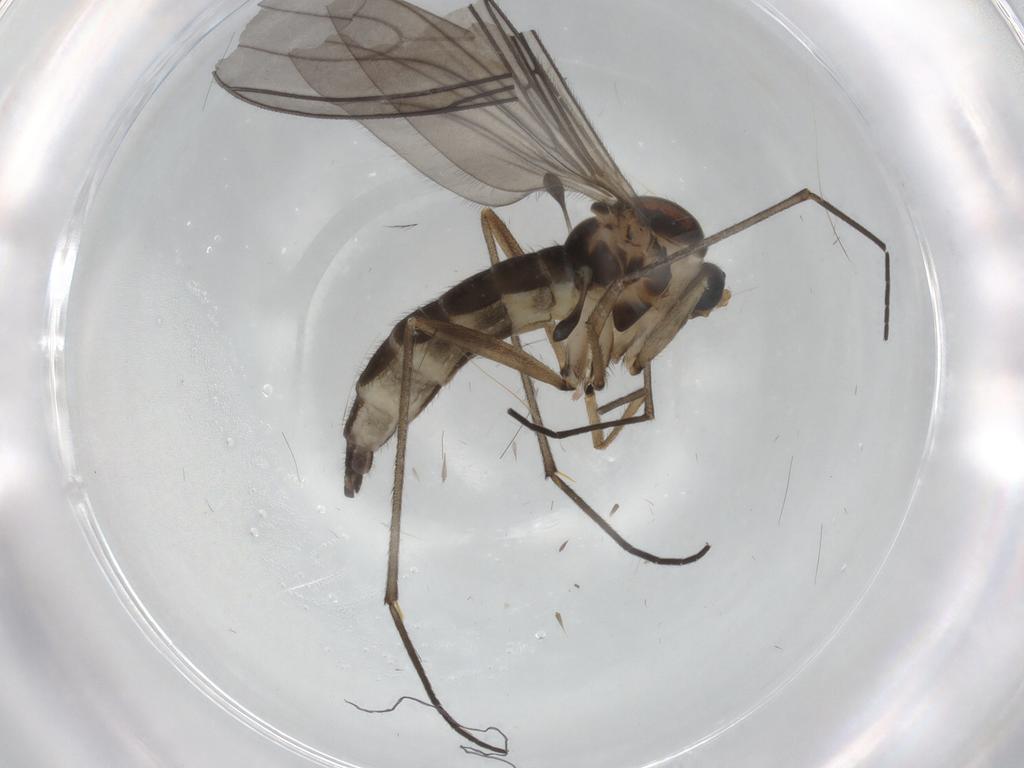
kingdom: Animalia
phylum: Arthropoda
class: Insecta
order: Diptera
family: Sciaridae
